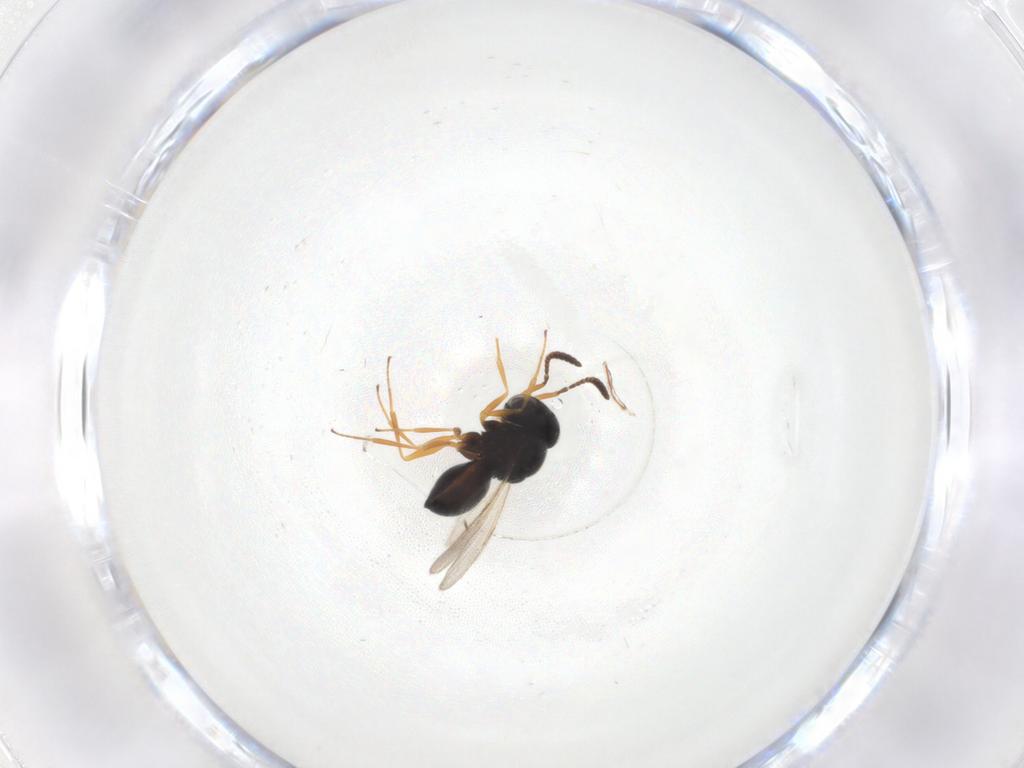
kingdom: Animalia
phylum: Arthropoda
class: Insecta
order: Hymenoptera
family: Scelionidae
